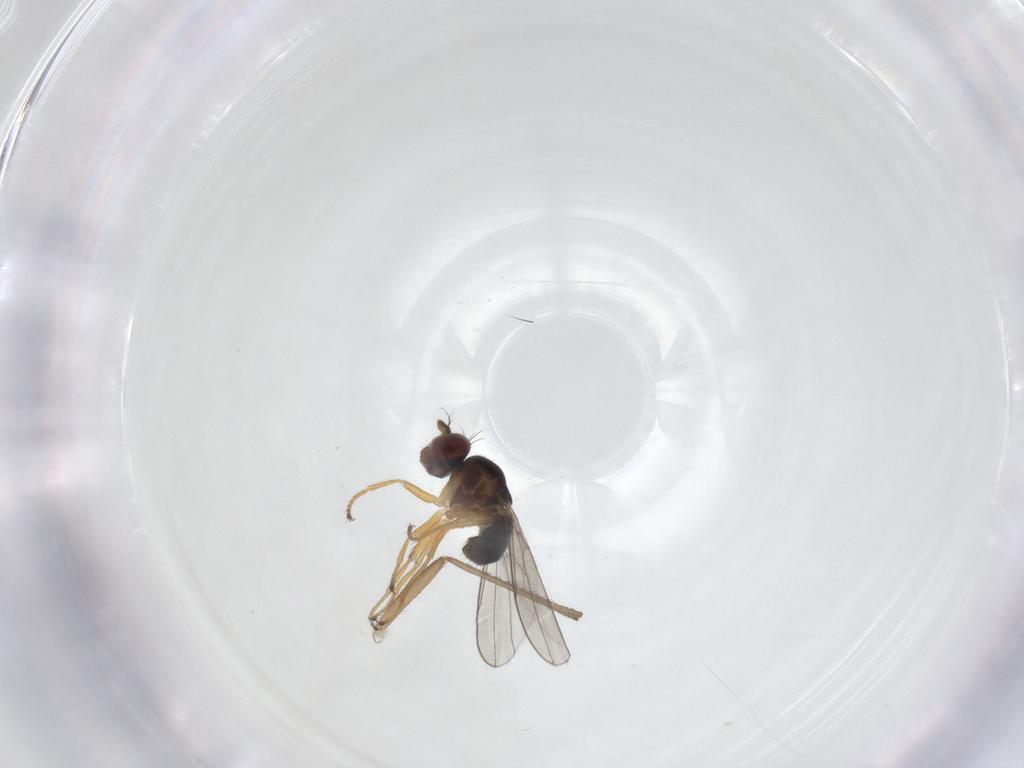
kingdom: Animalia
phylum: Arthropoda
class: Insecta
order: Diptera
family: Ephydridae
